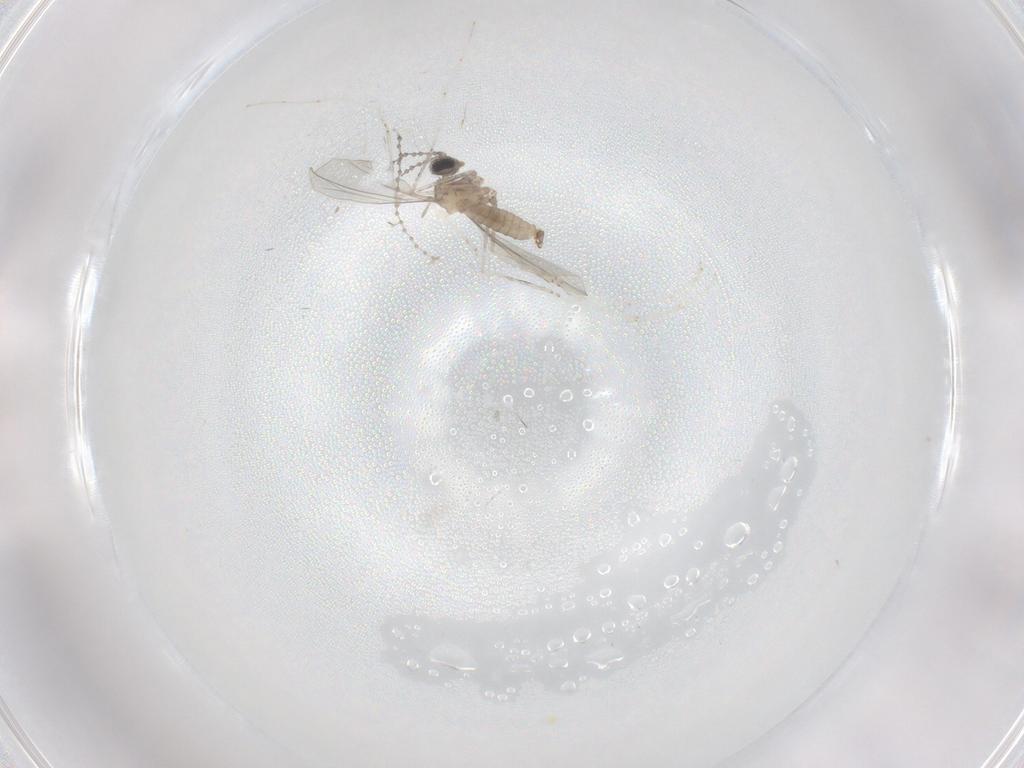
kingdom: Animalia
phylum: Arthropoda
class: Insecta
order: Diptera
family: Cecidomyiidae
